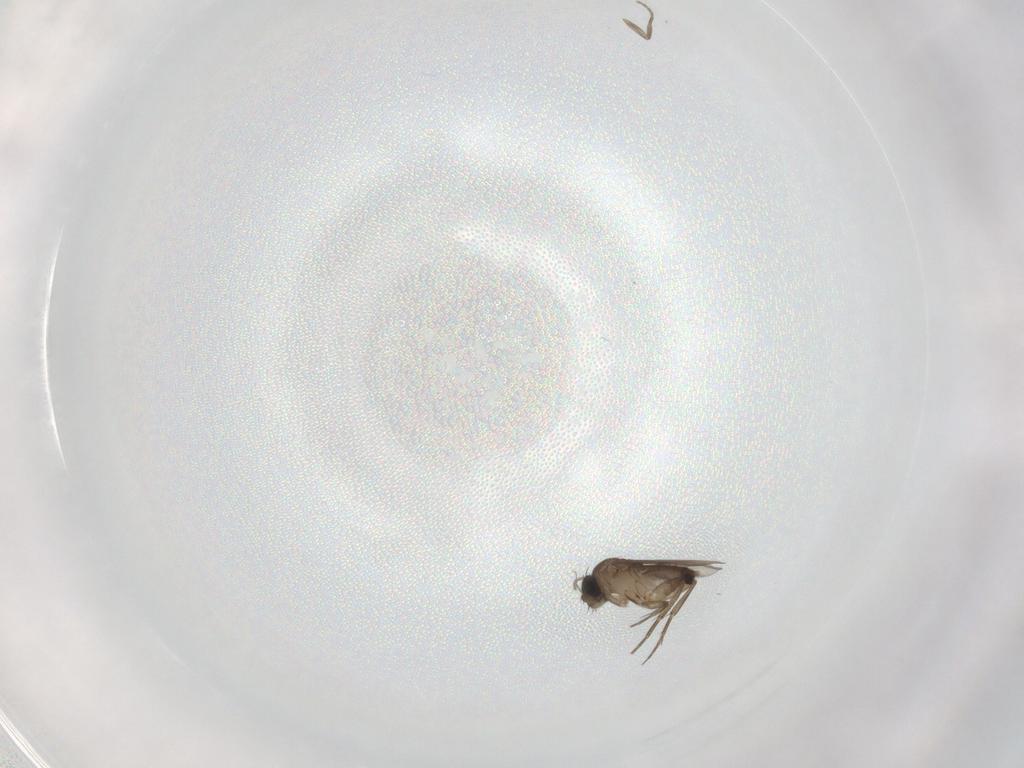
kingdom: Animalia
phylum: Arthropoda
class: Insecta
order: Diptera
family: Phoridae
